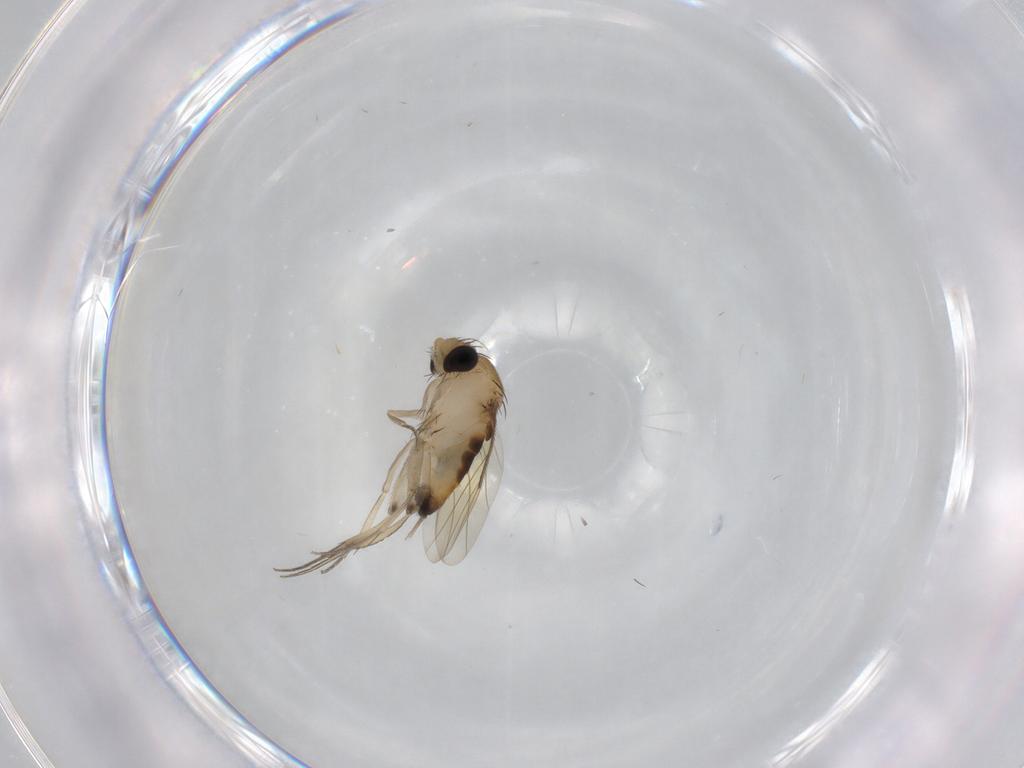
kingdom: Animalia
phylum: Arthropoda
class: Insecta
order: Diptera
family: Phoridae
